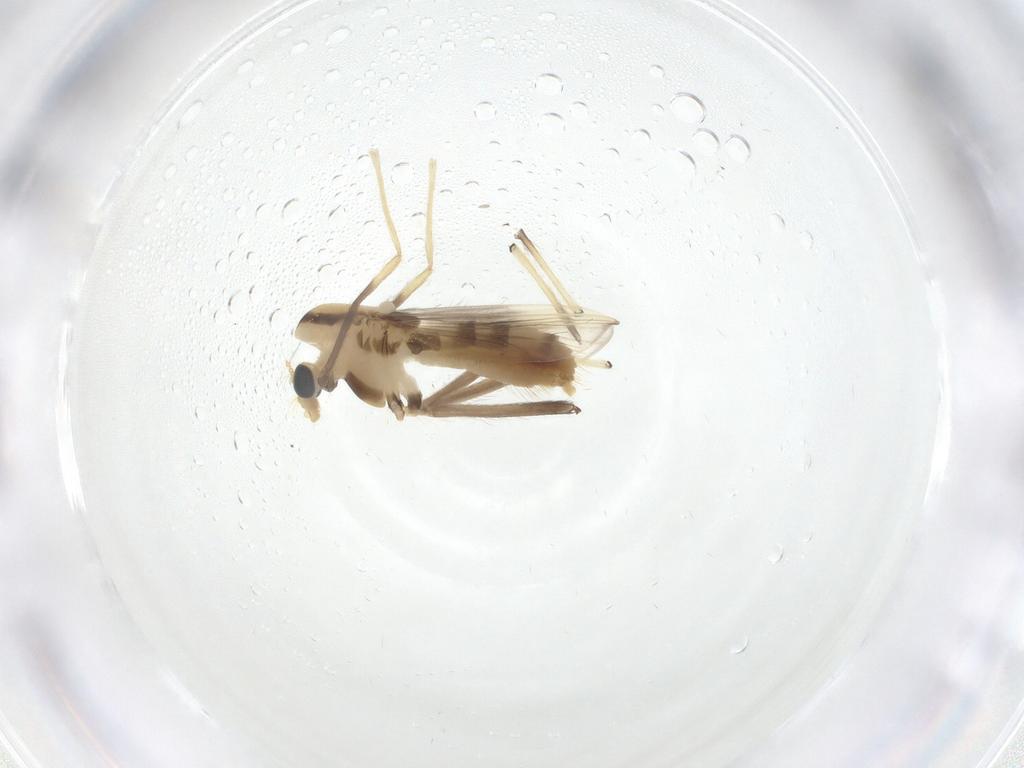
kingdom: Animalia
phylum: Arthropoda
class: Insecta
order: Diptera
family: Chironomidae
